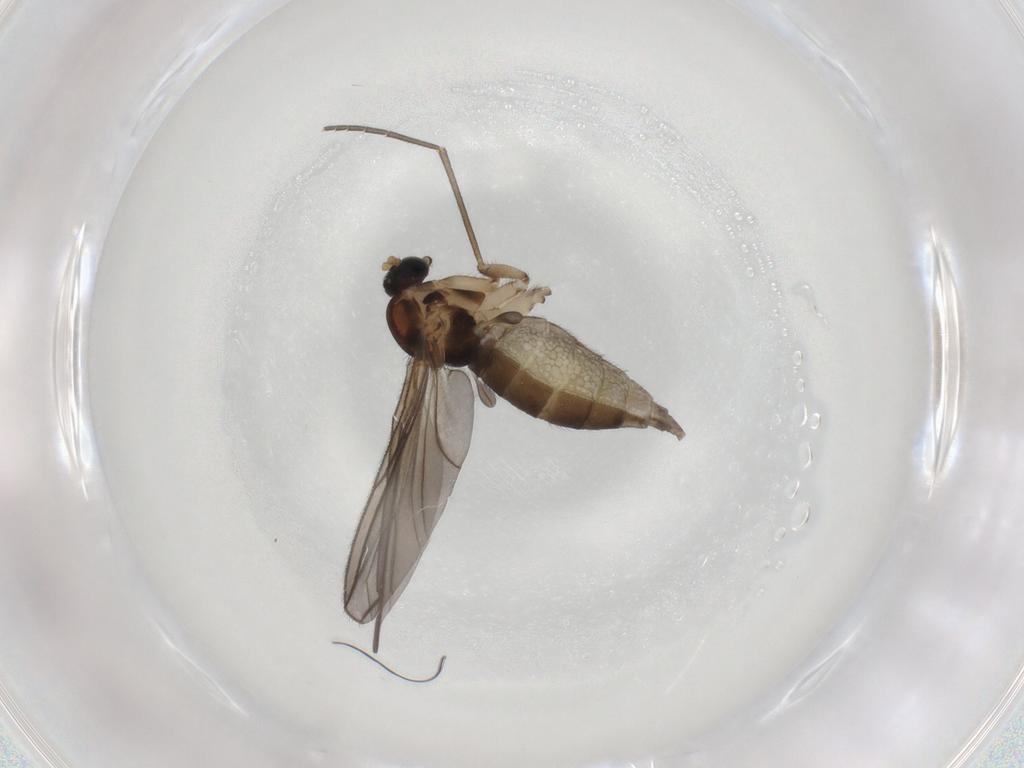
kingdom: Animalia
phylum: Arthropoda
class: Insecta
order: Diptera
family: Sciaridae
